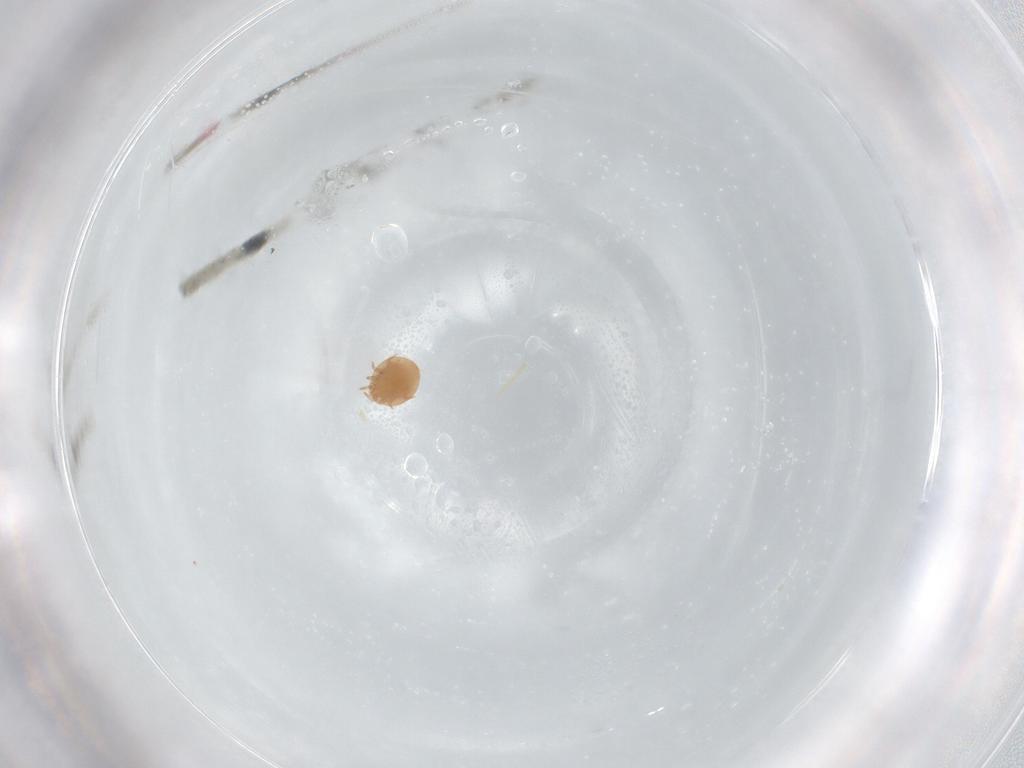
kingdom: Animalia
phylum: Arthropoda
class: Arachnida
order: Mesostigmata
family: Trematuridae
